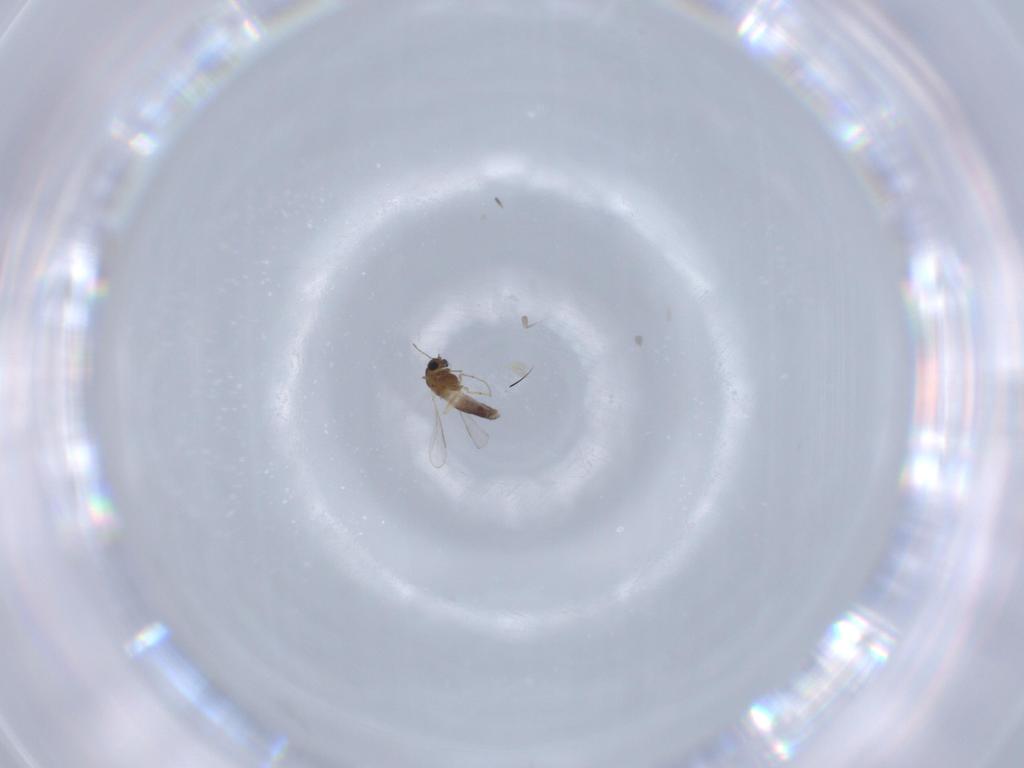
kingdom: Animalia
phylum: Arthropoda
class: Insecta
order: Diptera
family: Chironomidae
